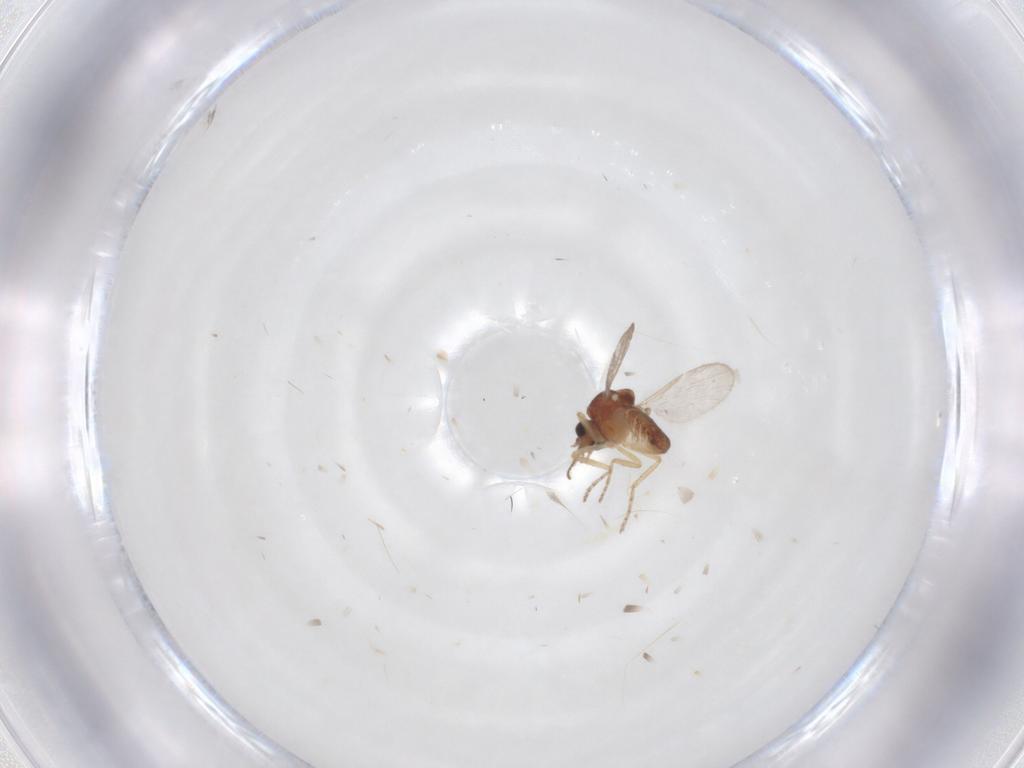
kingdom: Animalia
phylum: Arthropoda
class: Insecta
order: Diptera
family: Ceratopogonidae
